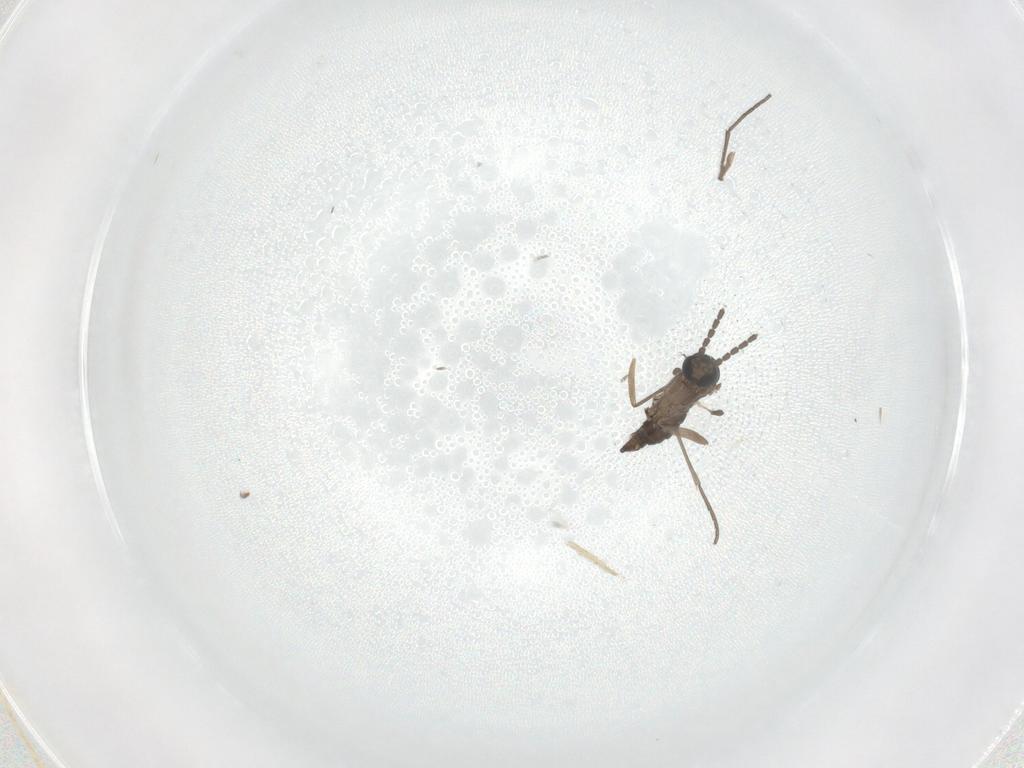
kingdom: Animalia
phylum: Arthropoda
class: Insecta
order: Diptera
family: Sciaridae
